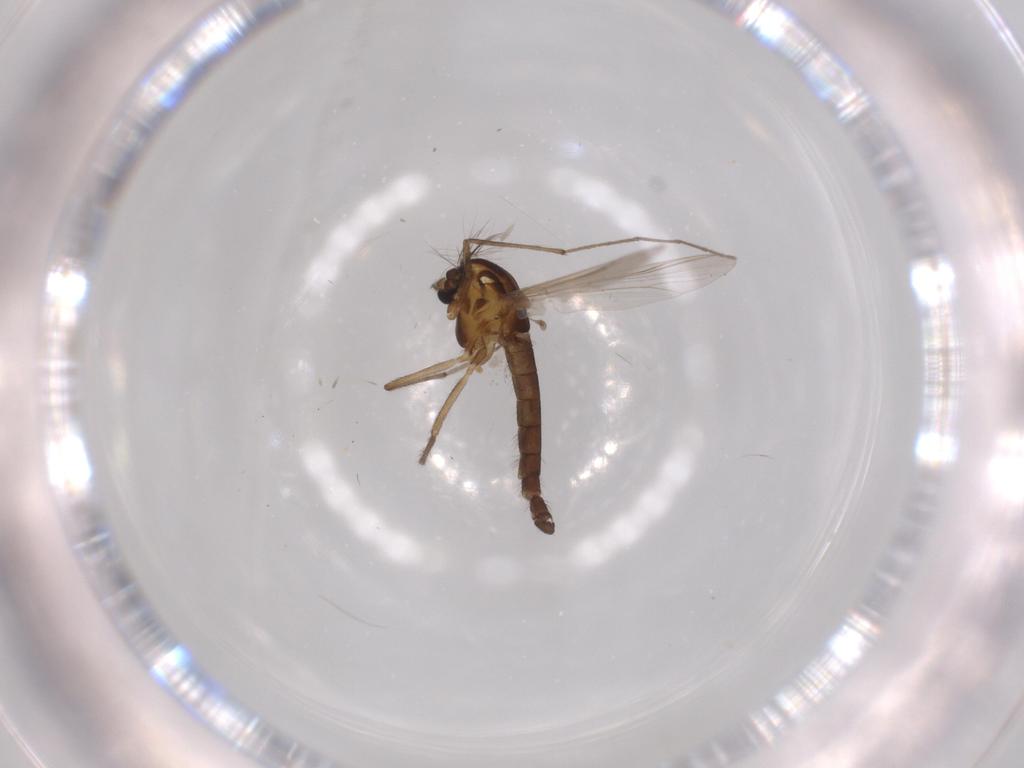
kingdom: Animalia
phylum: Arthropoda
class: Insecta
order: Diptera
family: Chironomidae
